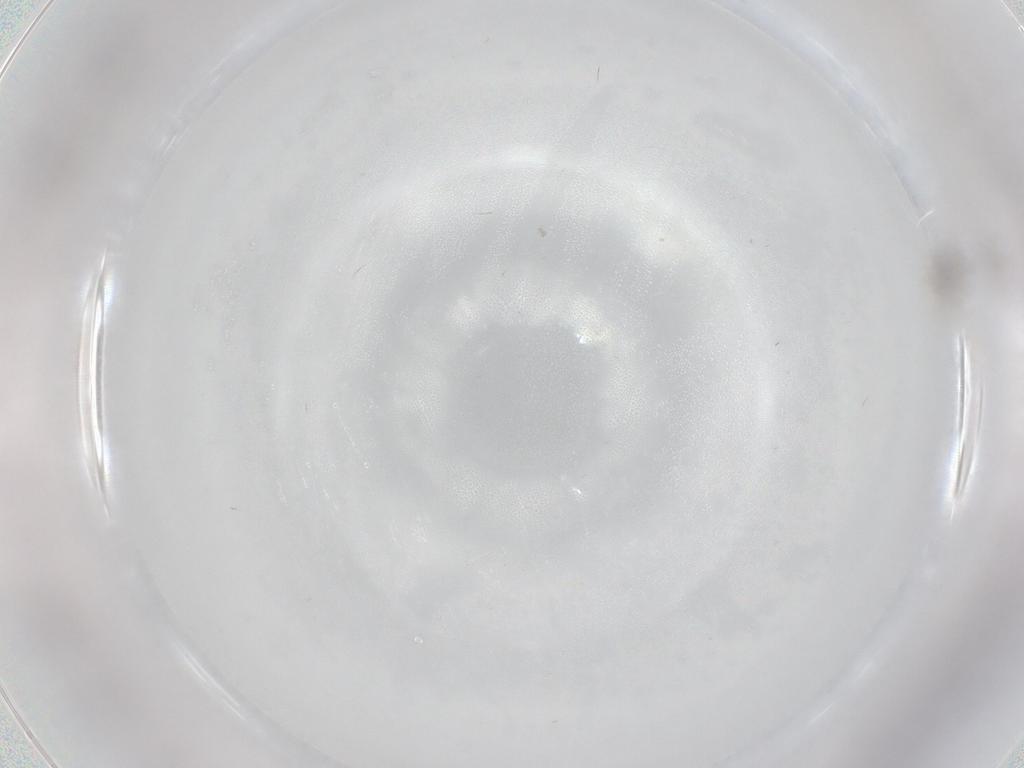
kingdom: Animalia
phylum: Arthropoda
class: Insecta
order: Diptera
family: Cecidomyiidae
